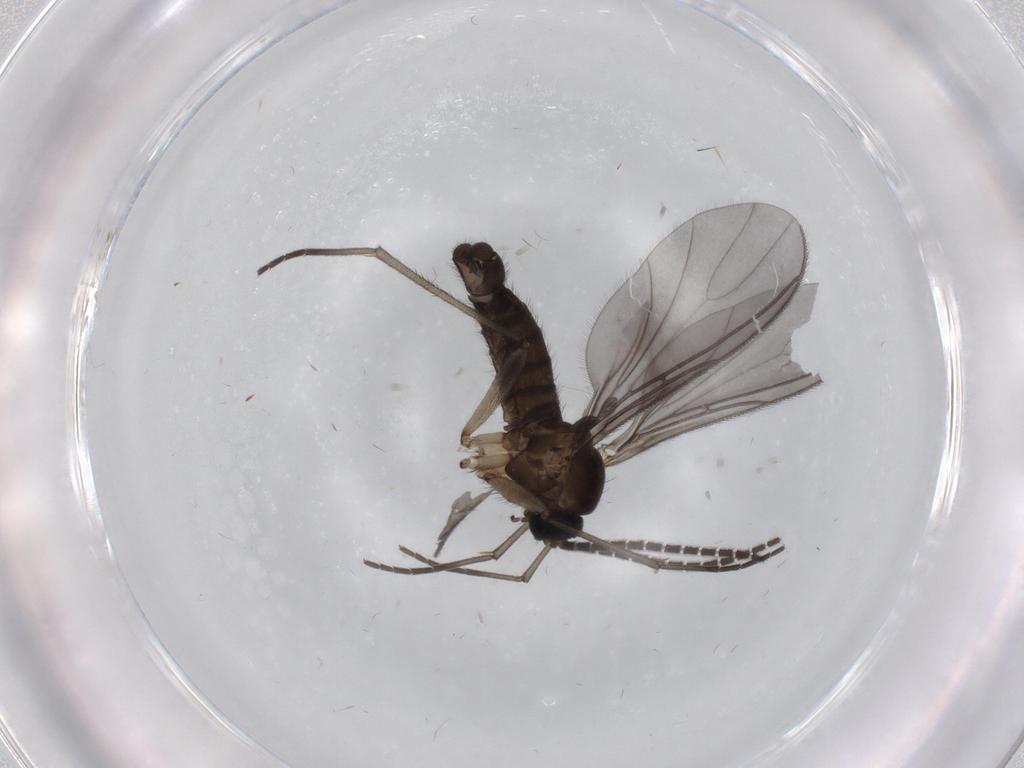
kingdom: Animalia
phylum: Arthropoda
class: Insecta
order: Diptera
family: Sciaridae
